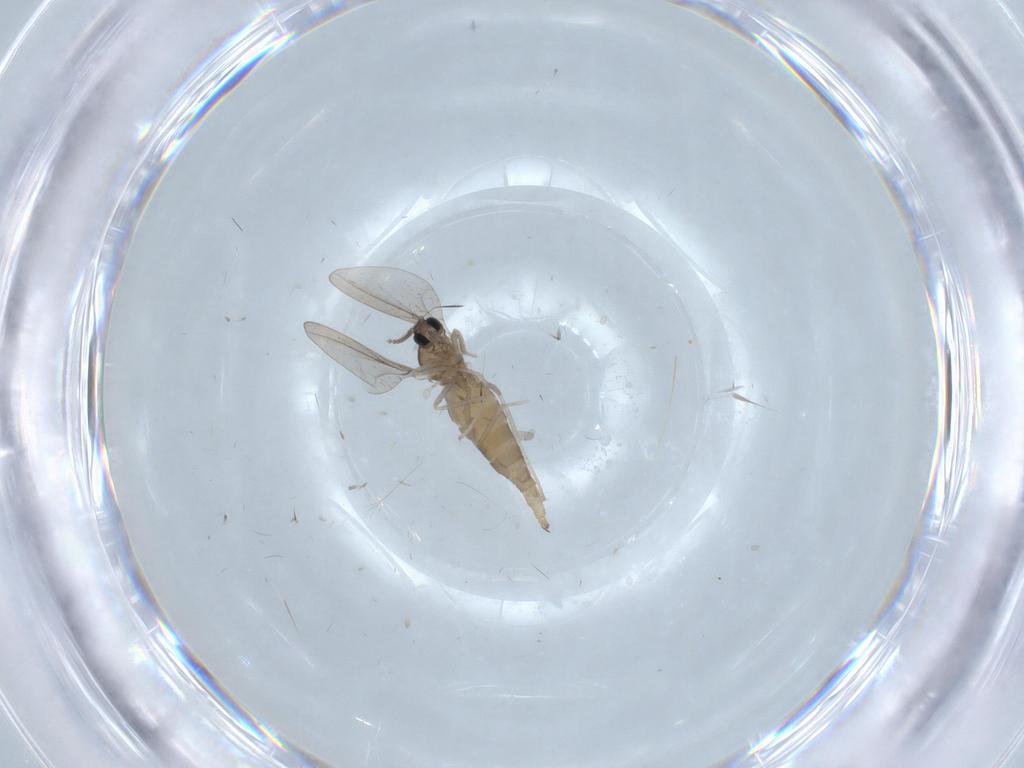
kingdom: Animalia
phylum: Arthropoda
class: Insecta
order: Diptera
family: Cecidomyiidae
